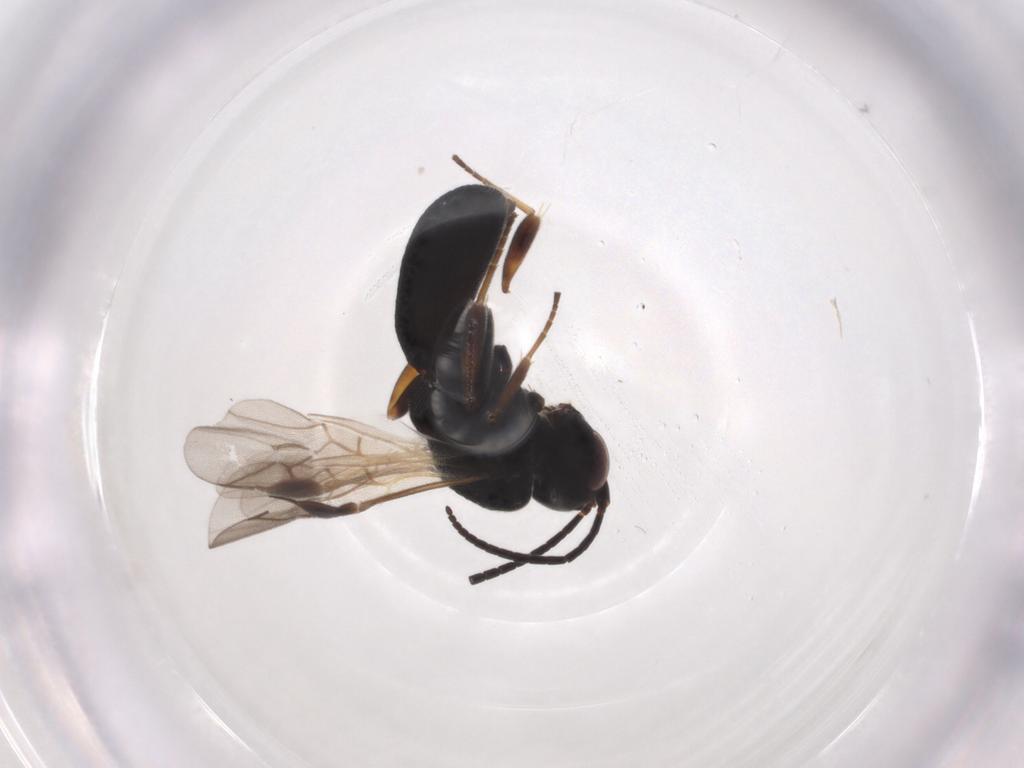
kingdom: Animalia
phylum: Arthropoda
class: Insecta
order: Hymenoptera
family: Braconidae
